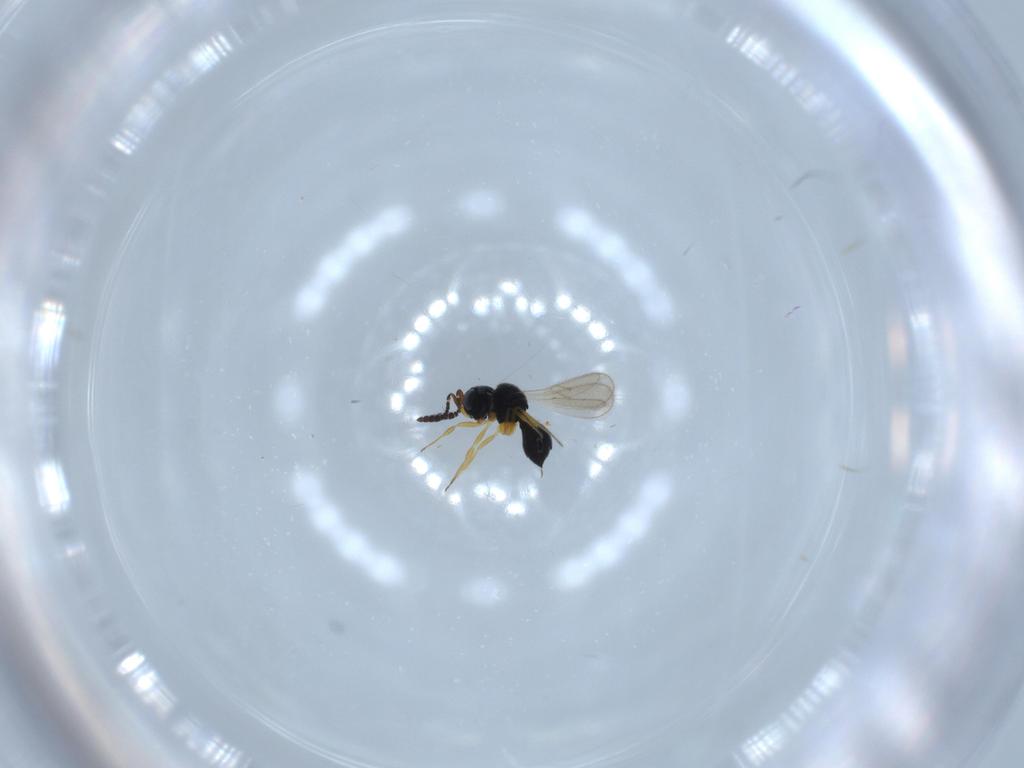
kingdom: Animalia
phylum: Arthropoda
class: Insecta
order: Hymenoptera
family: Scelionidae
